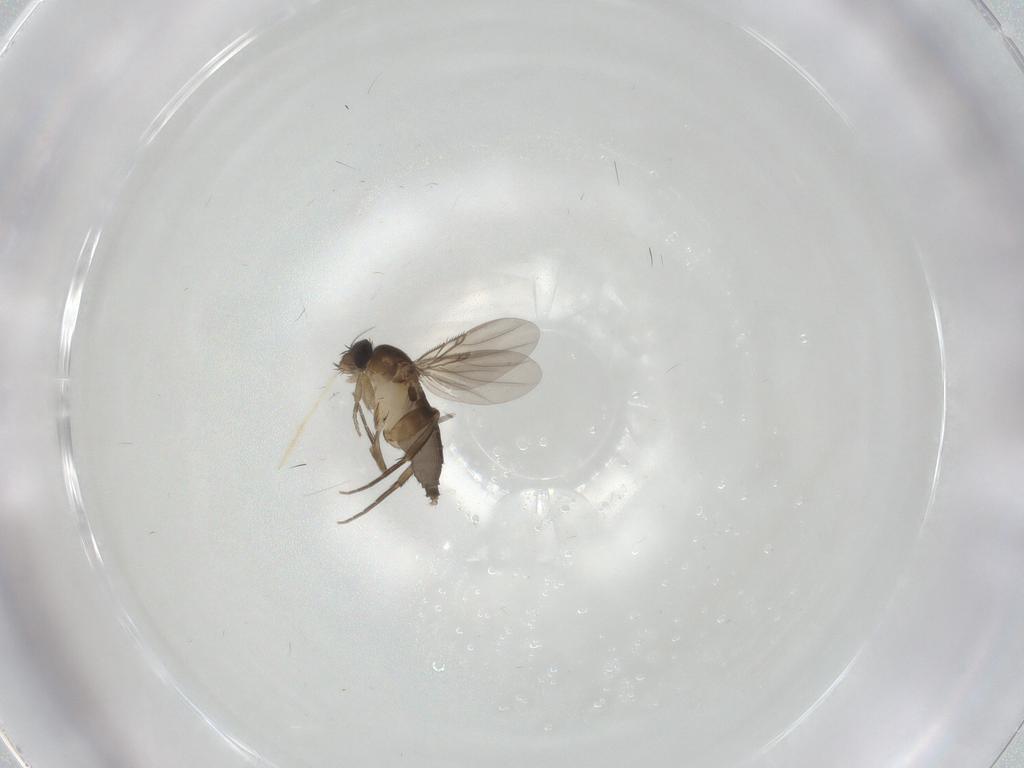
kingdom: Animalia
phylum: Arthropoda
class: Insecta
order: Diptera
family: Phoridae
